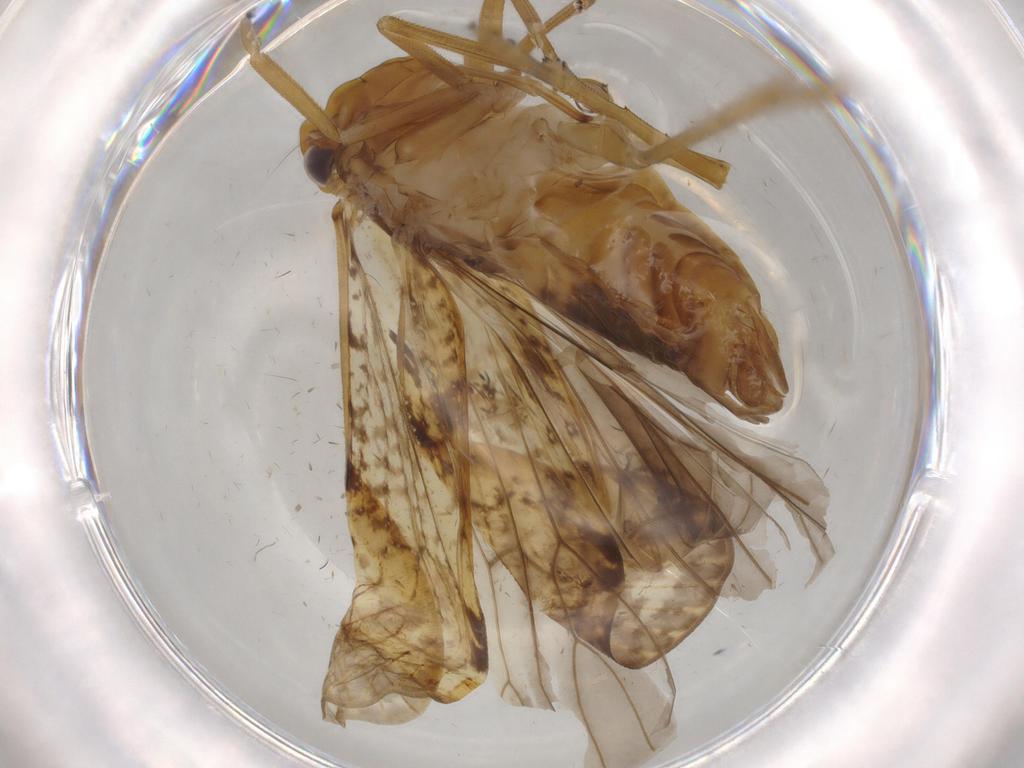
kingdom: Animalia
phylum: Arthropoda
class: Insecta
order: Hemiptera
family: Cixiidae
